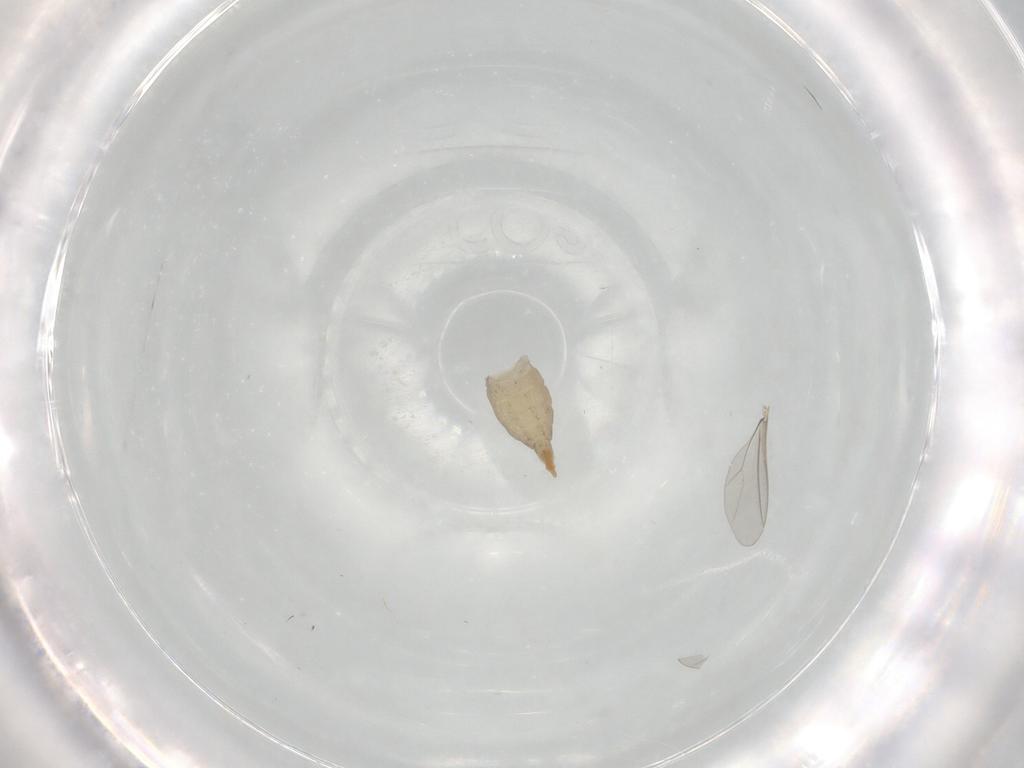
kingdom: Animalia
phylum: Arthropoda
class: Insecta
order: Diptera
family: Cecidomyiidae
